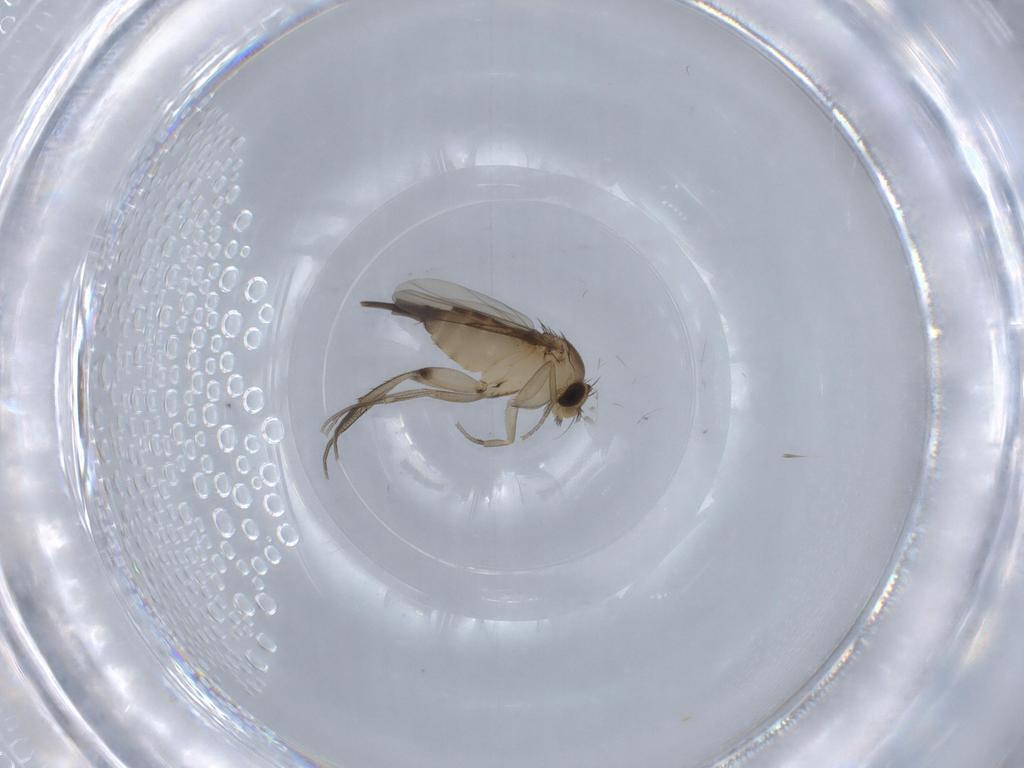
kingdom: Animalia
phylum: Arthropoda
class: Insecta
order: Diptera
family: Phoridae
